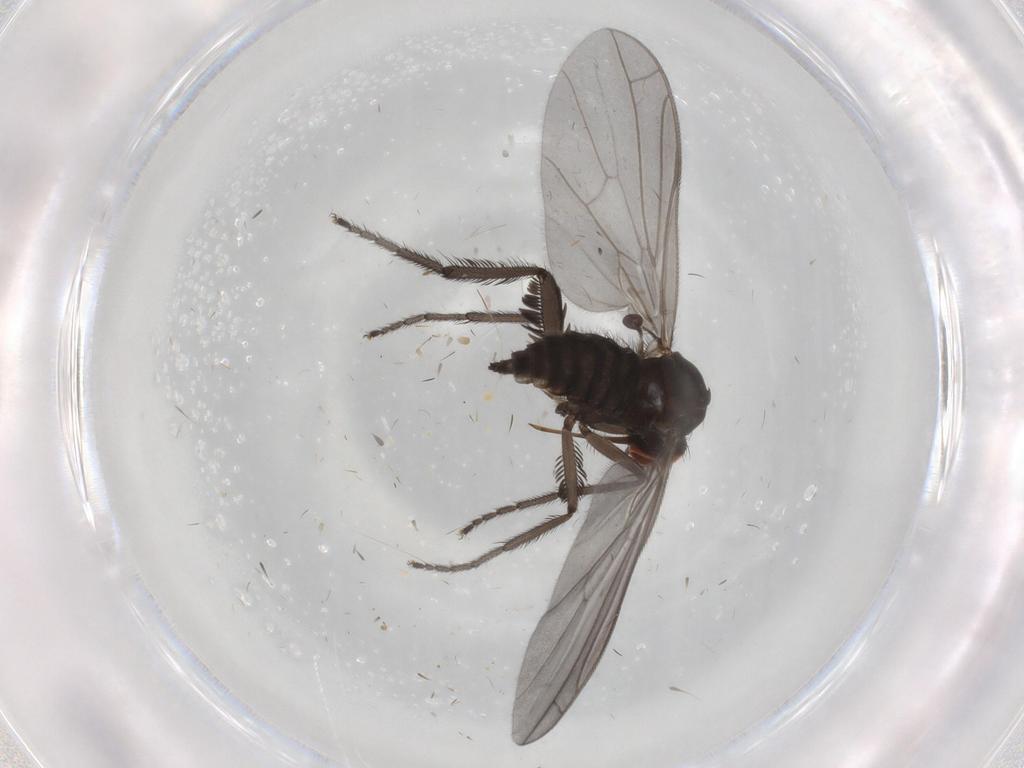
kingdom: Animalia
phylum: Arthropoda
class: Insecta
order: Diptera
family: Empididae
